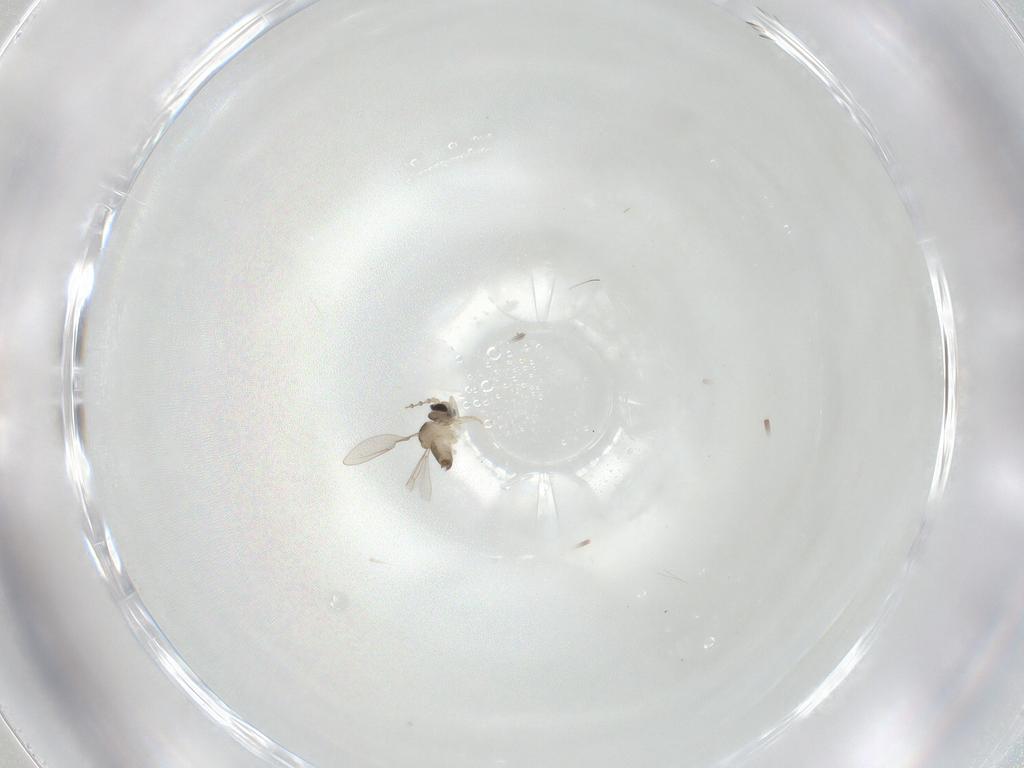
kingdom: Animalia
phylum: Arthropoda
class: Insecta
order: Diptera
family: Cecidomyiidae
